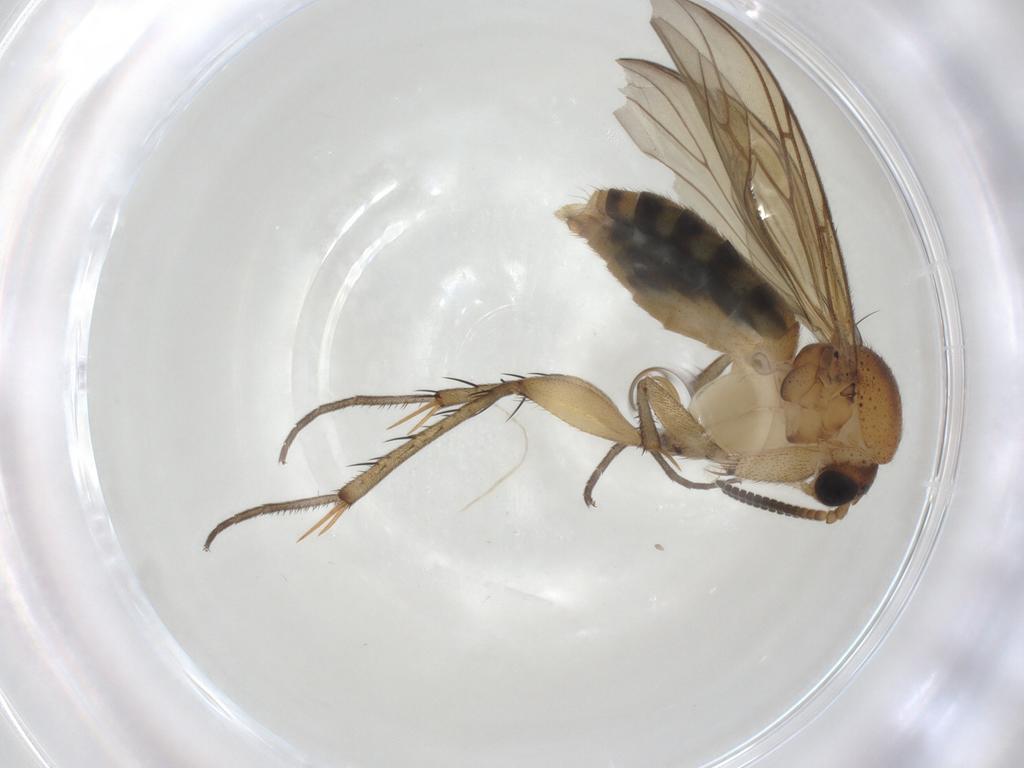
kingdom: Animalia
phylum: Arthropoda
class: Insecta
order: Diptera
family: Mycetophilidae
